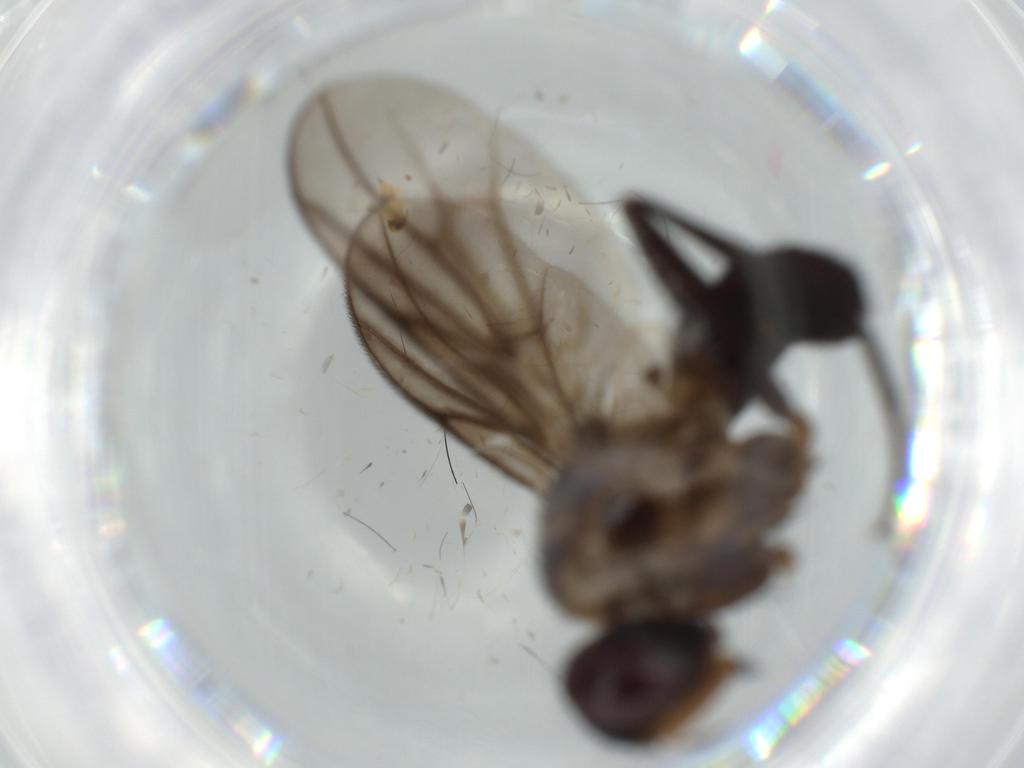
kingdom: Animalia
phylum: Arthropoda
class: Insecta
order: Diptera
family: Calliphoridae
